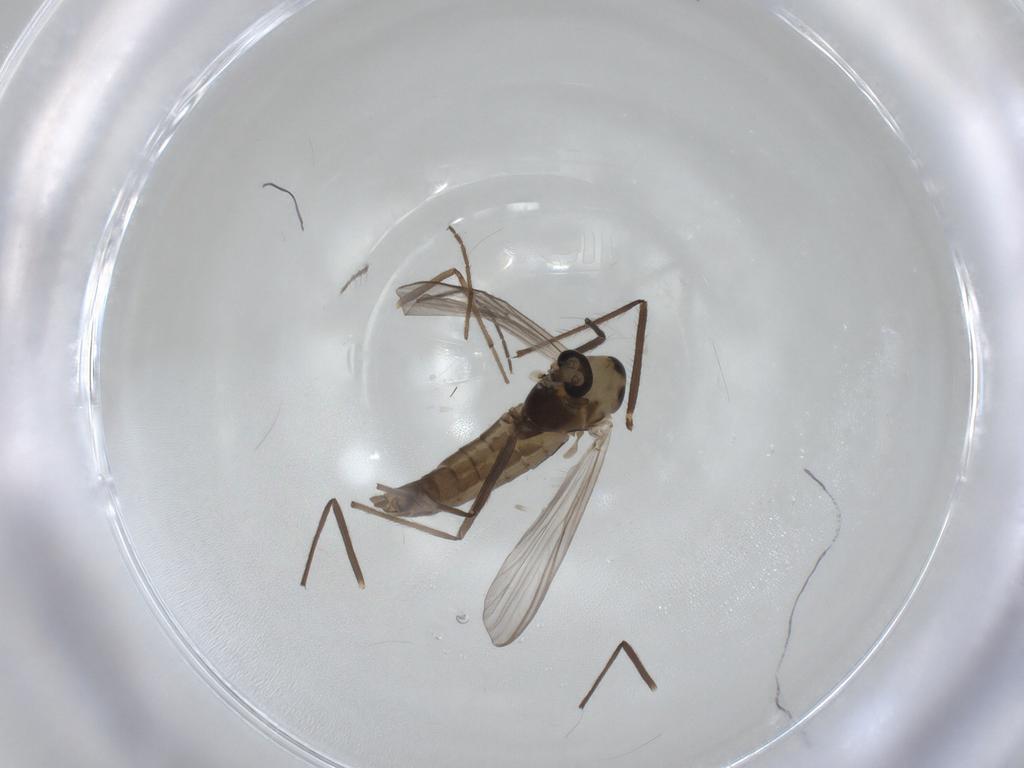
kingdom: Animalia
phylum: Arthropoda
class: Insecta
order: Diptera
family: Chironomidae
